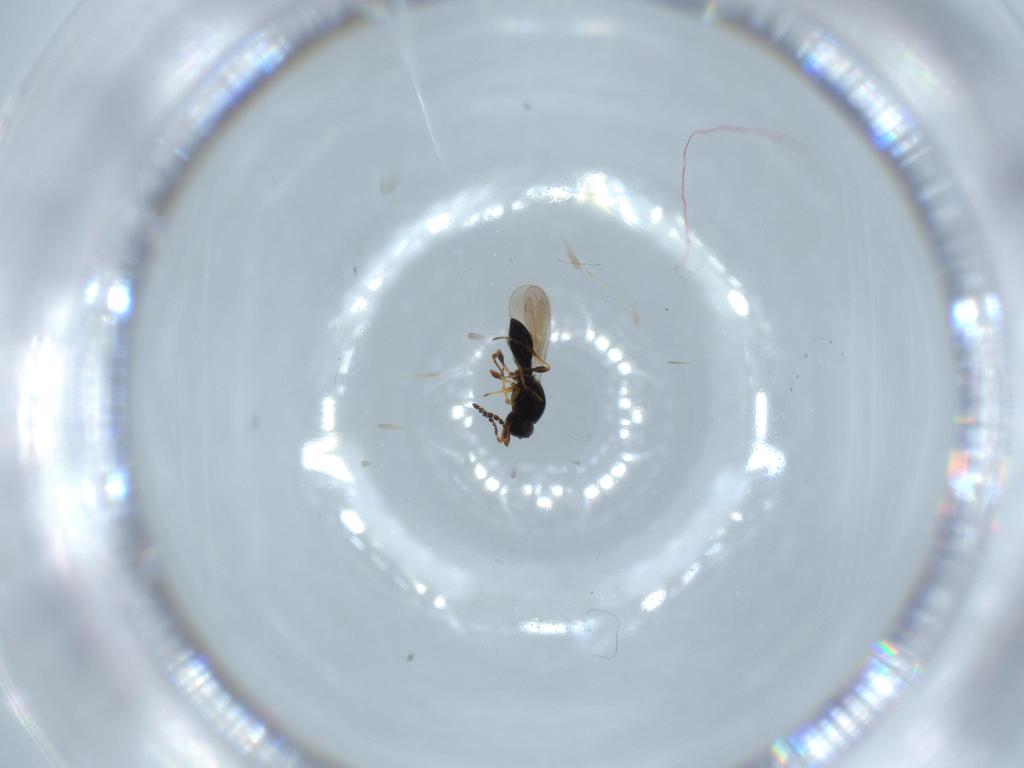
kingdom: Animalia
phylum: Arthropoda
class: Insecta
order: Hymenoptera
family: Platygastridae
